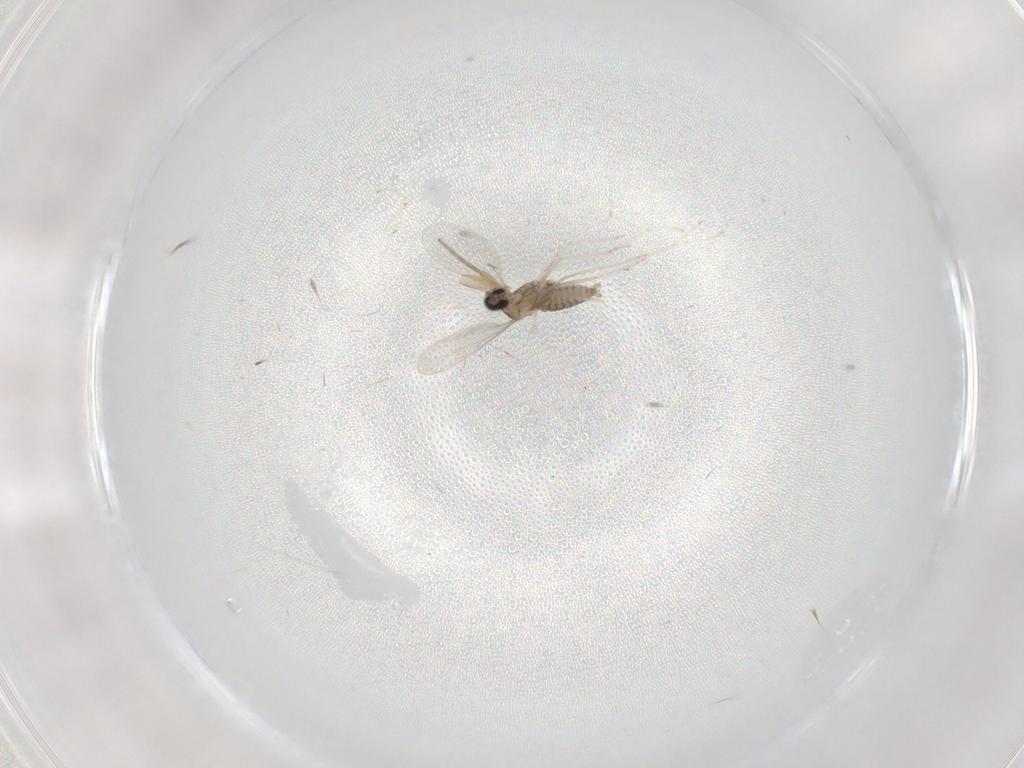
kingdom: Animalia
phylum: Arthropoda
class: Insecta
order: Diptera
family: Cecidomyiidae
